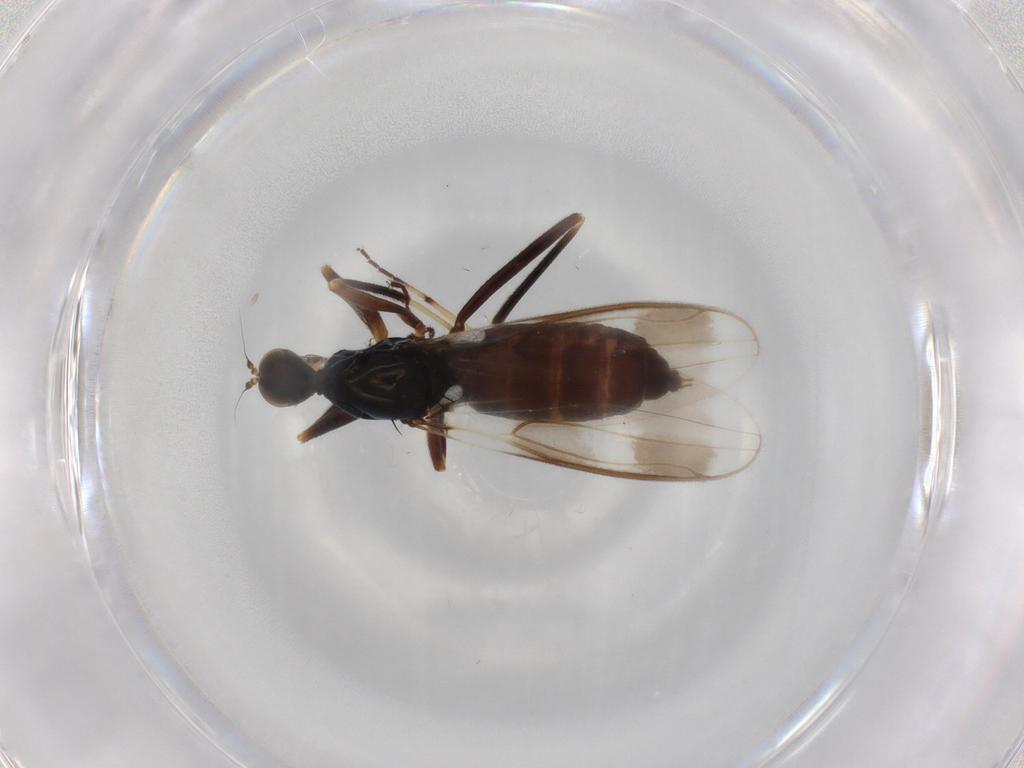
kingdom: Animalia
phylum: Arthropoda
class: Insecta
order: Diptera
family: Hybotidae
